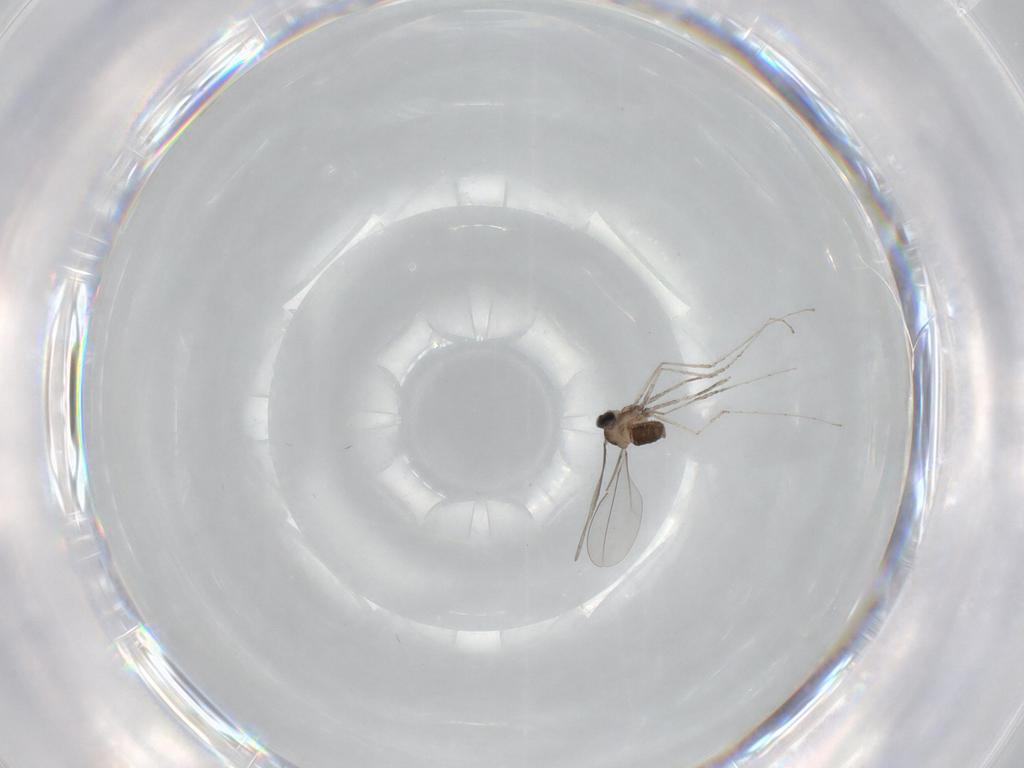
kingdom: Animalia
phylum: Arthropoda
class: Insecta
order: Diptera
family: Cecidomyiidae
